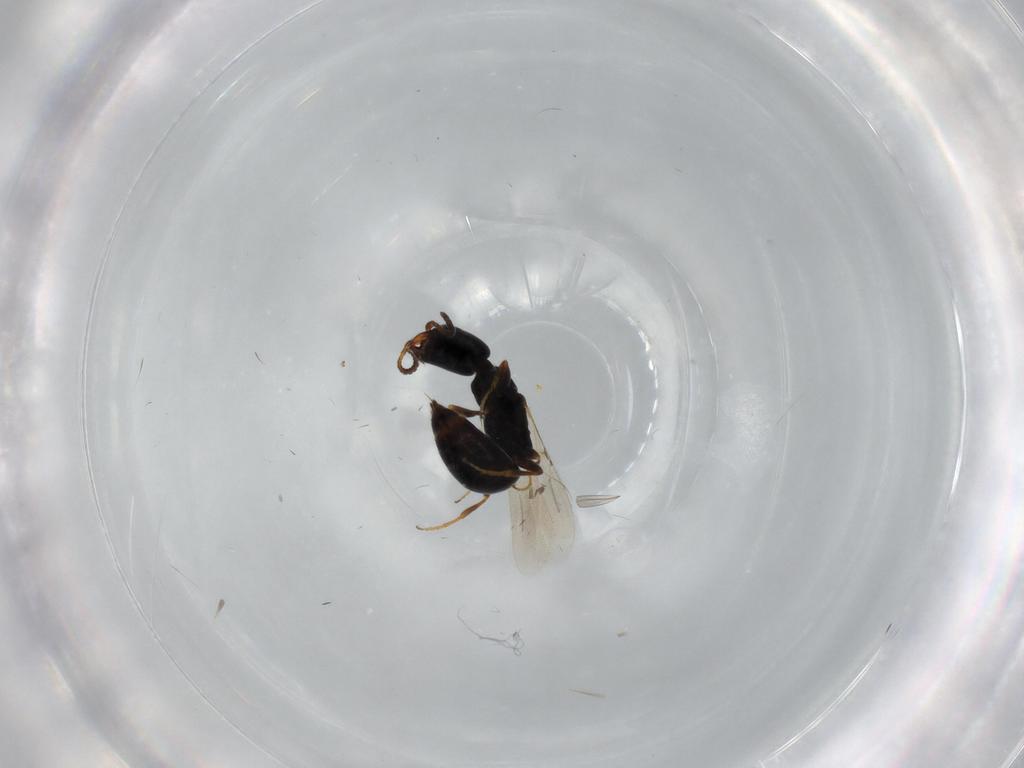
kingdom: Animalia
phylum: Arthropoda
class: Insecta
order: Hymenoptera
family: Bethylidae
